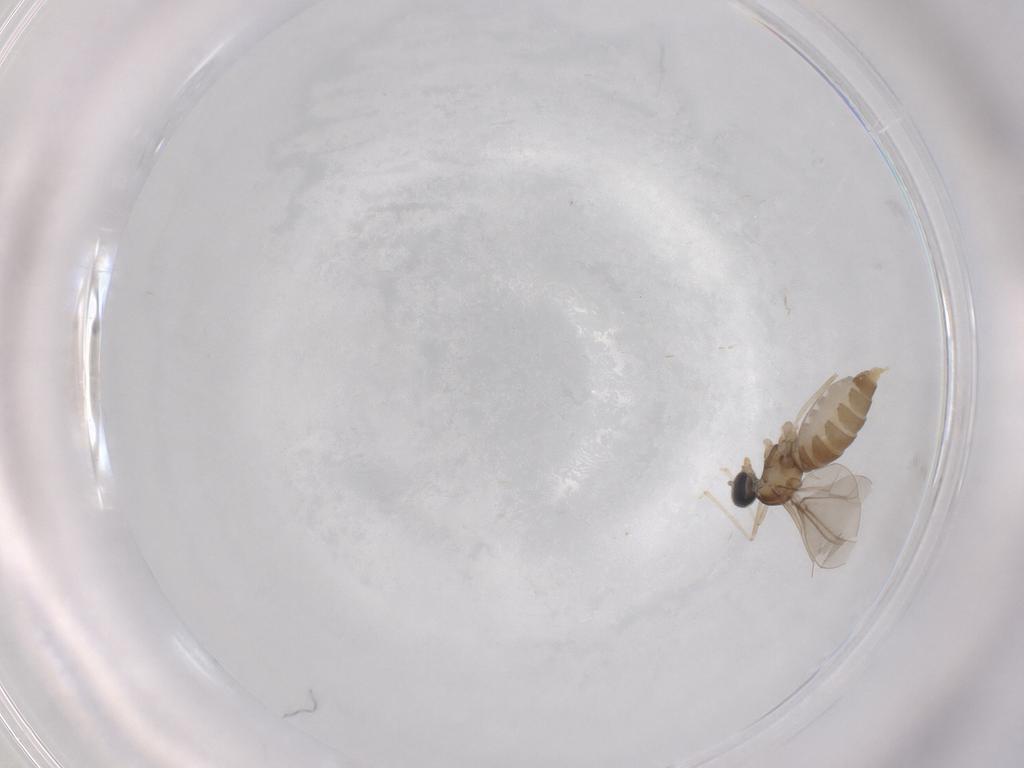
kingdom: Animalia
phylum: Arthropoda
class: Insecta
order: Diptera
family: Cecidomyiidae
